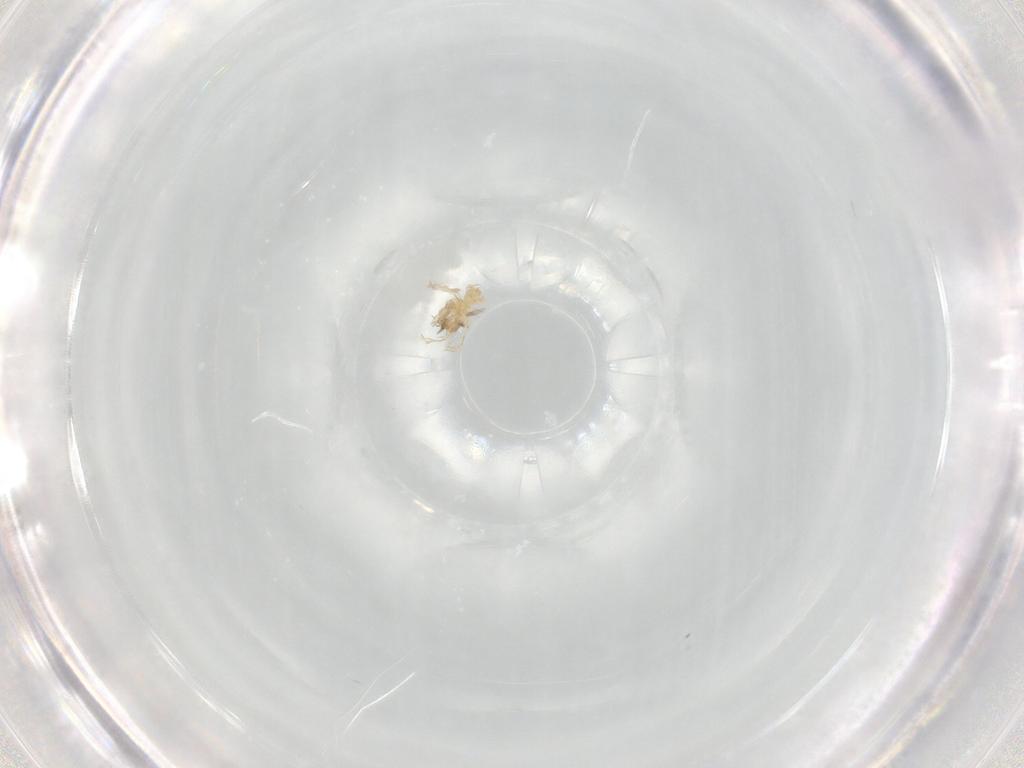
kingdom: Animalia
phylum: Arthropoda
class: Arachnida
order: Trombidiformes
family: Erythraeidae
